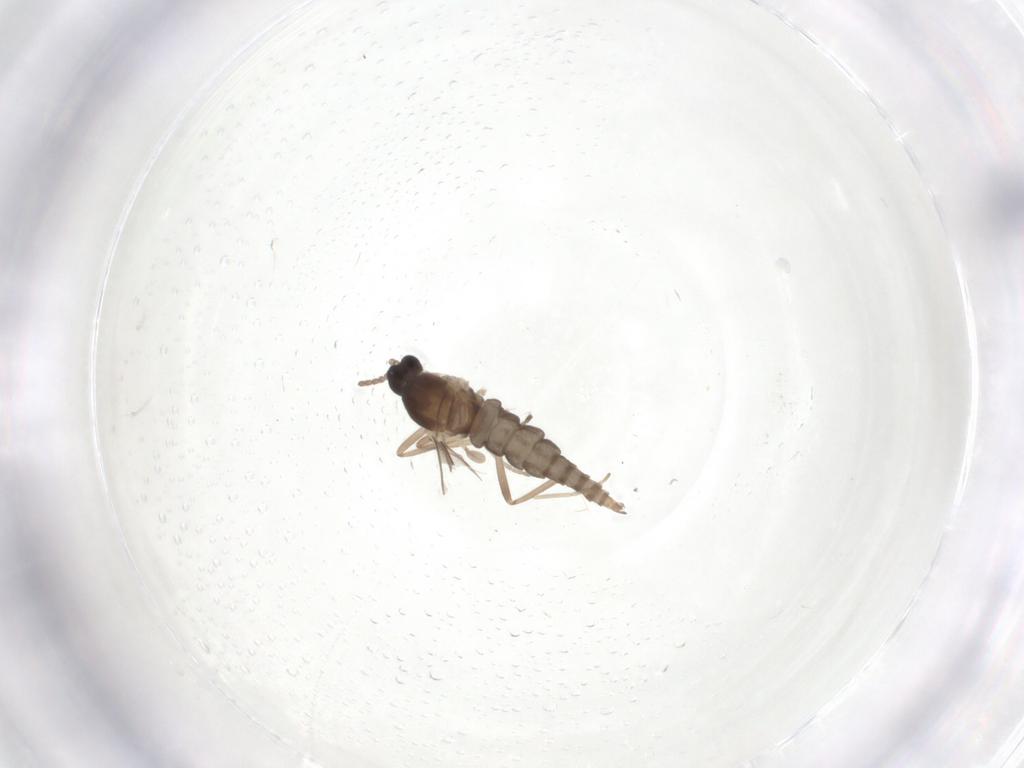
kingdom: Animalia
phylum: Arthropoda
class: Insecta
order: Diptera
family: Cecidomyiidae
